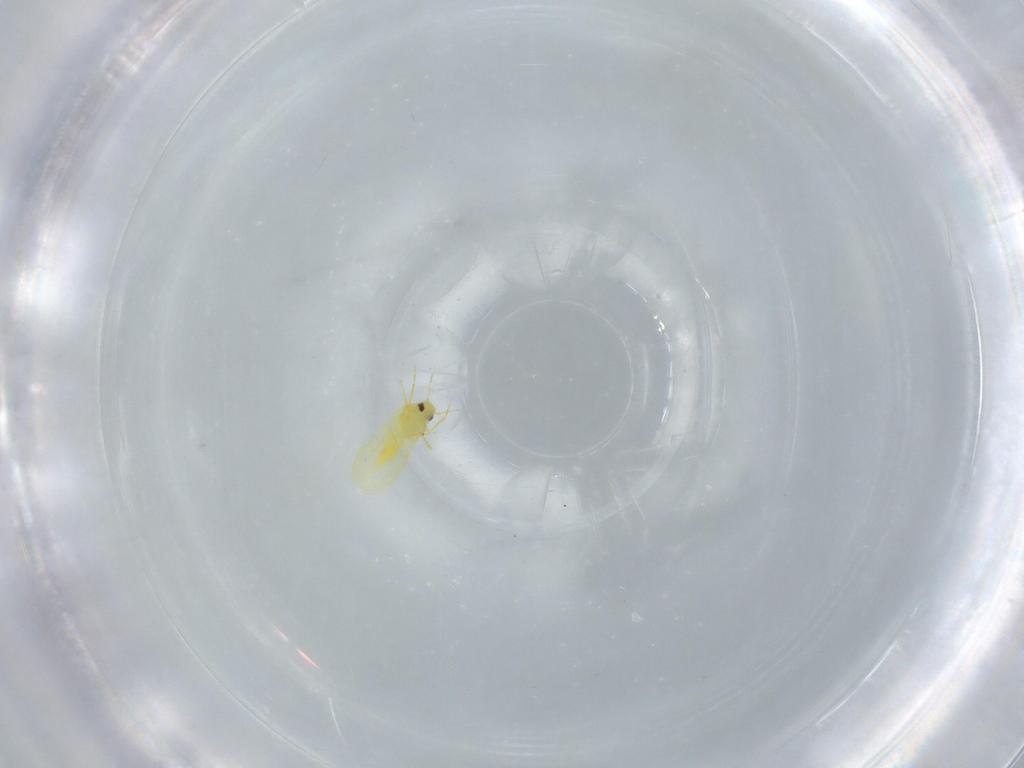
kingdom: Animalia
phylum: Arthropoda
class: Insecta
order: Hemiptera
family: Aleyrodidae
